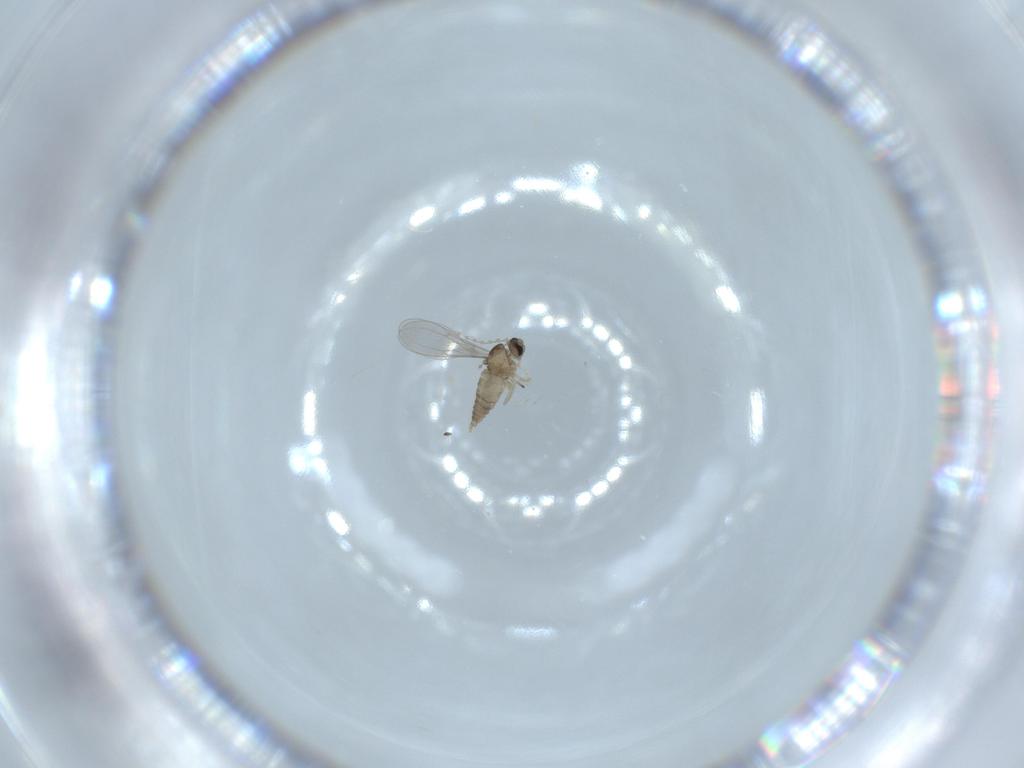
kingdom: Animalia
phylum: Arthropoda
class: Insecta
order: Diptera
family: Cecidomyiidae
